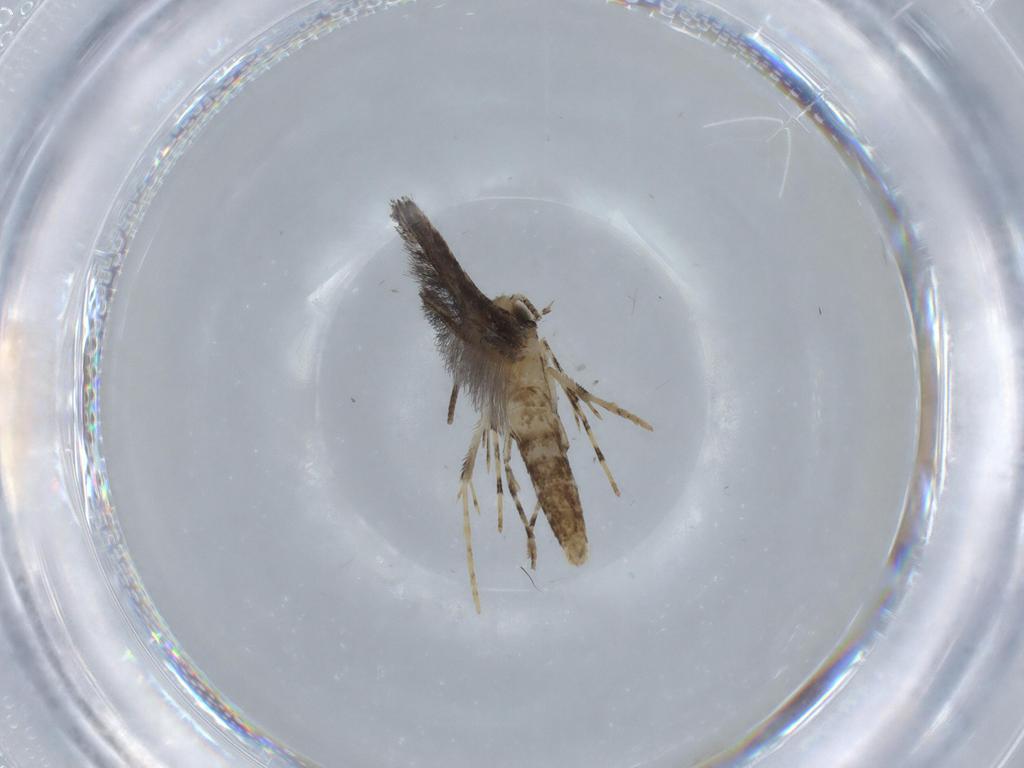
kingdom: Animalia
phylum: Arthropoda
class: Insecta
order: Lepidoptera
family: Gracillariidae
